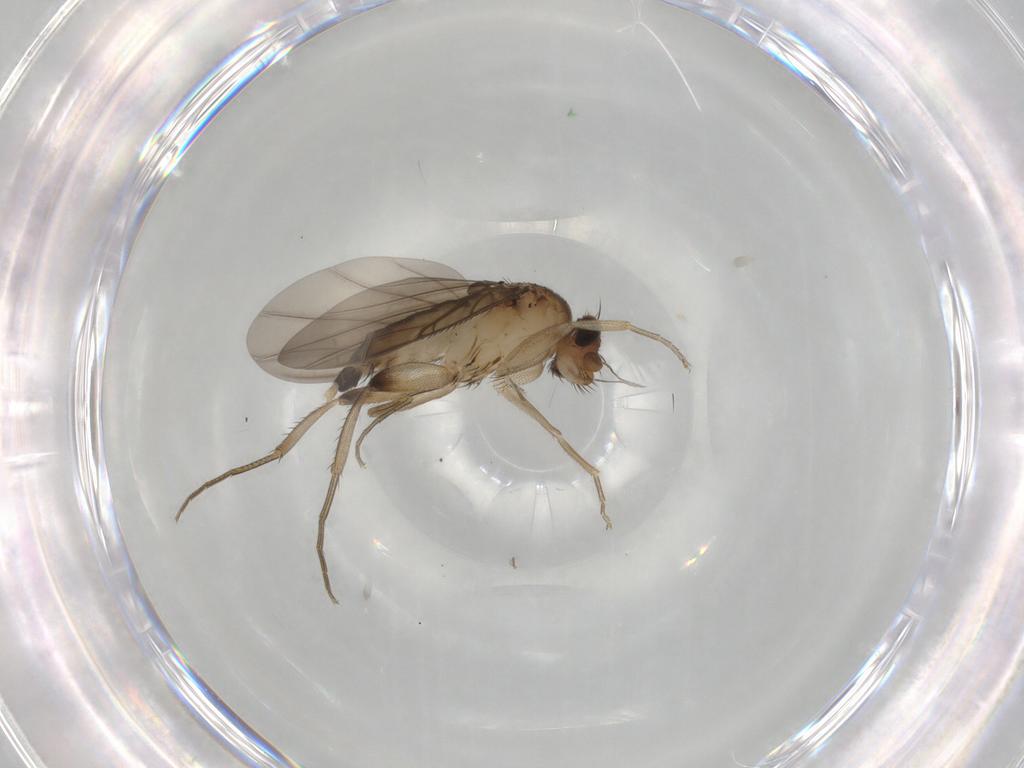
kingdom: Animalia
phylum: Arthropoda
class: Insecta
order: Diptera
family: Phoridae
